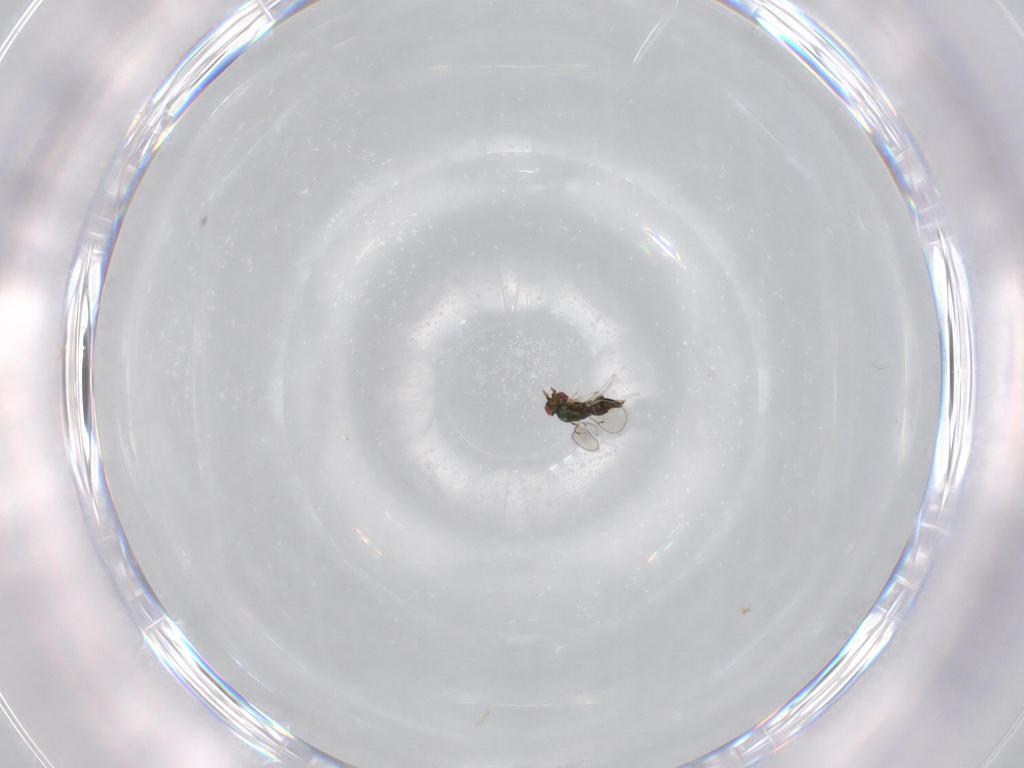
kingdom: Animalia
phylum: Arthropoda
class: Insecta
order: Hymenoptera
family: Eulophidae
